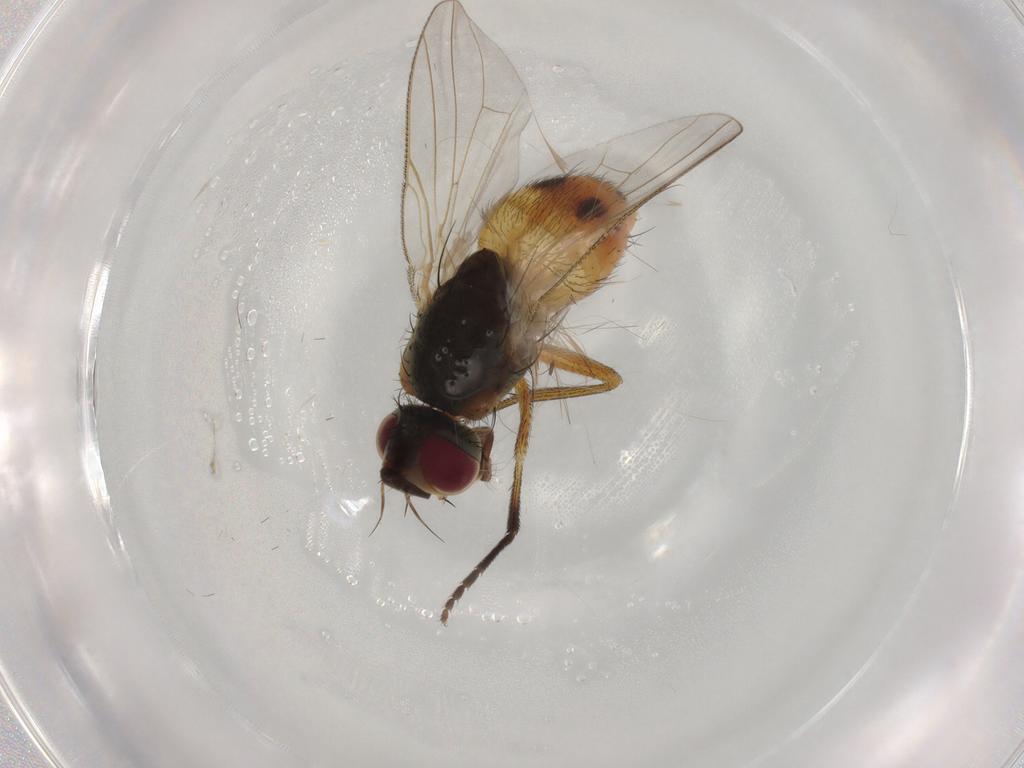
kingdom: Animalia
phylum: Arthropoda
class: Insecta
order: Diptera
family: Muscidae
